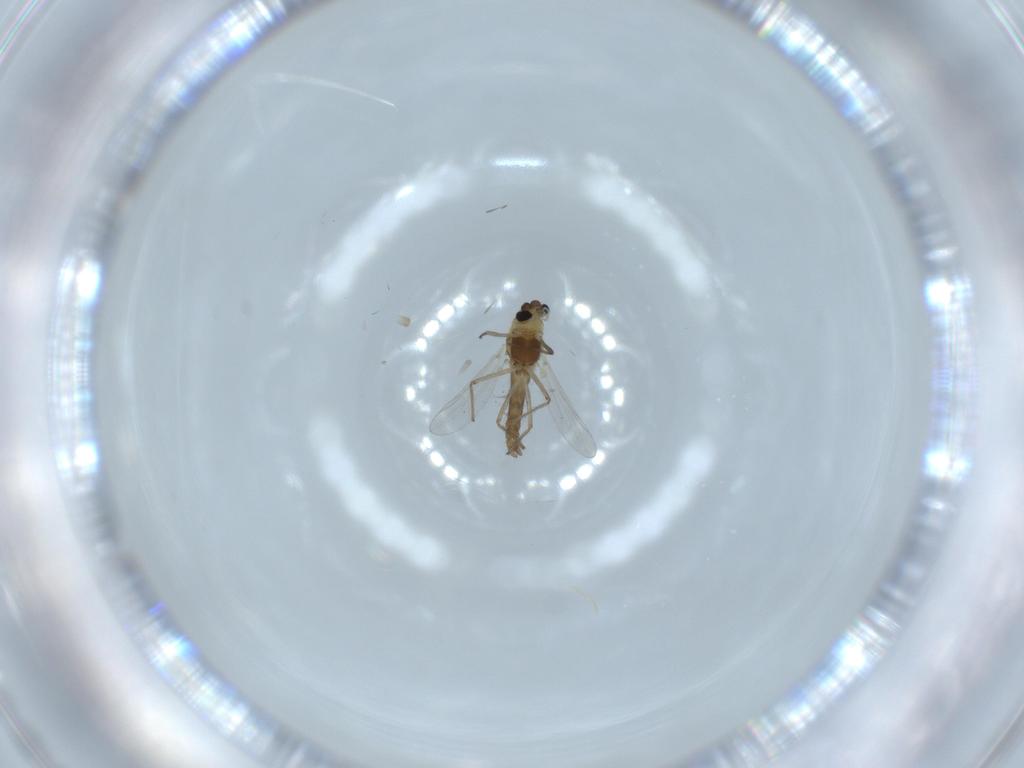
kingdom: Animalia
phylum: Arthropoda
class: Insecta
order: Diptera
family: Chironomidae
